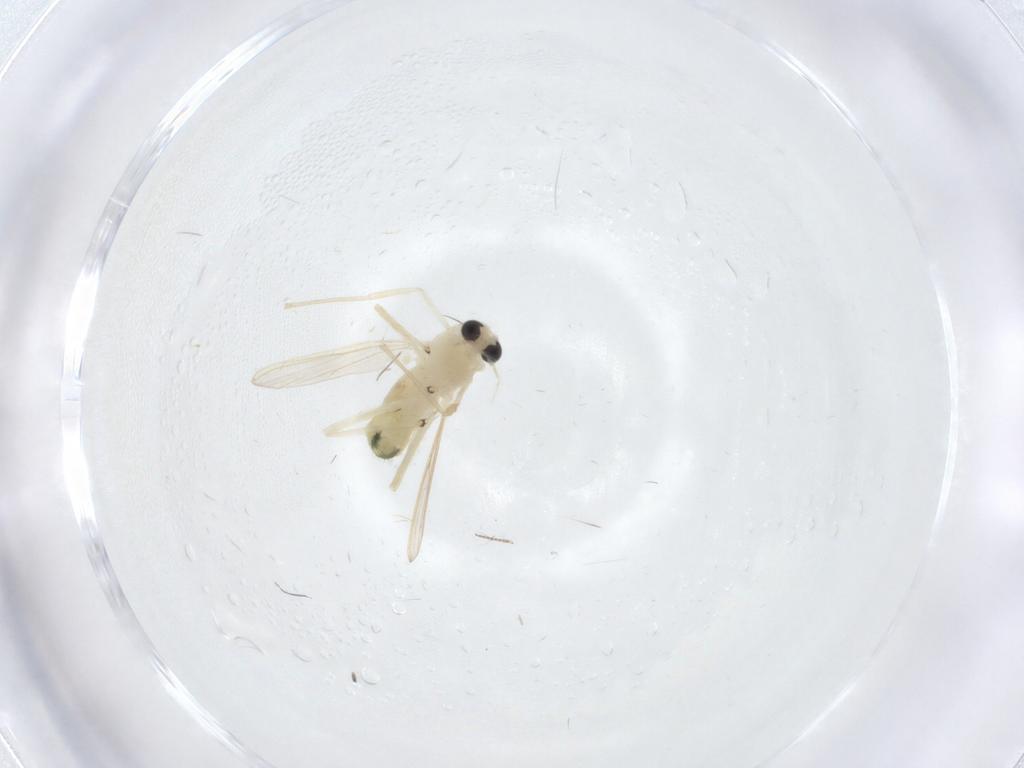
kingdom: Animalia
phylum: Arthropoda
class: Insecta
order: Diptera
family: Chironomidae
